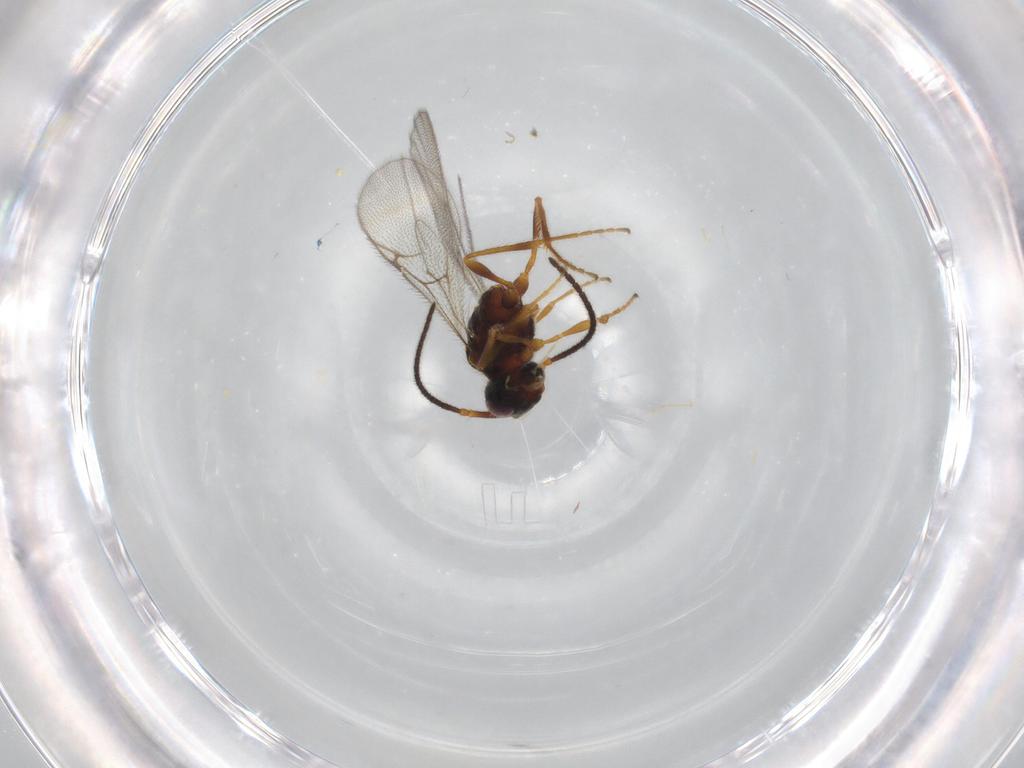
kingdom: Animalia
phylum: Arthropoda
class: Insecta
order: Hymenoptera
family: Diapriidae
